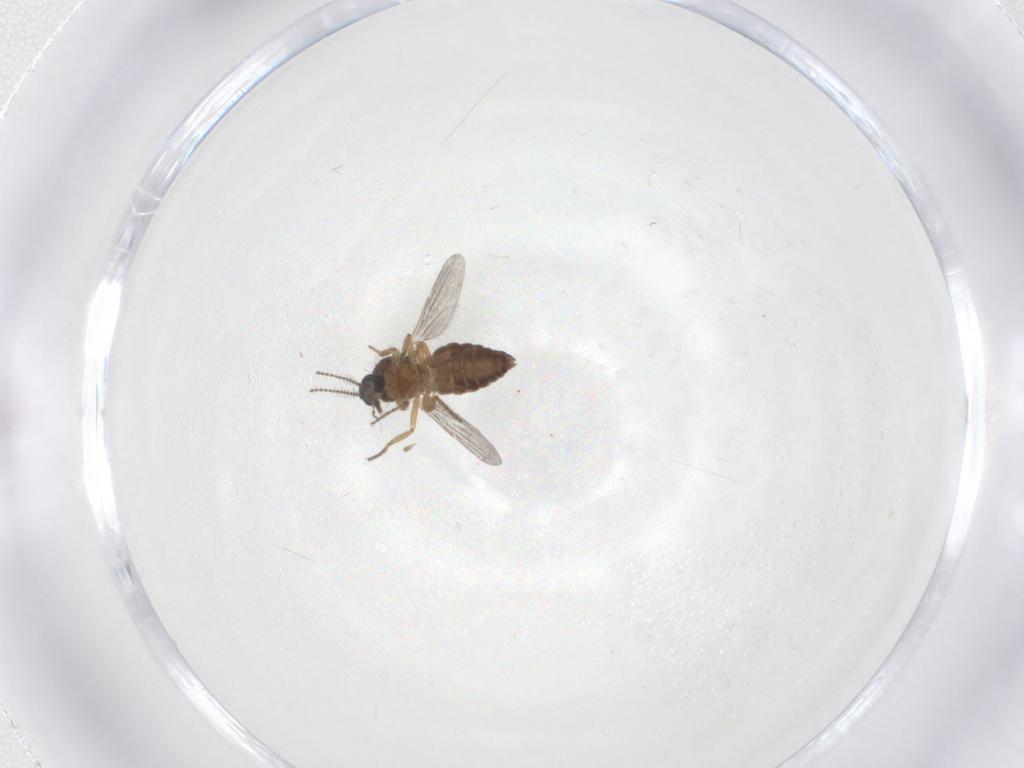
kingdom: Animalia
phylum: Arthropoda
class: Insecta
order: Diptera
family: Ceratopogonidae
